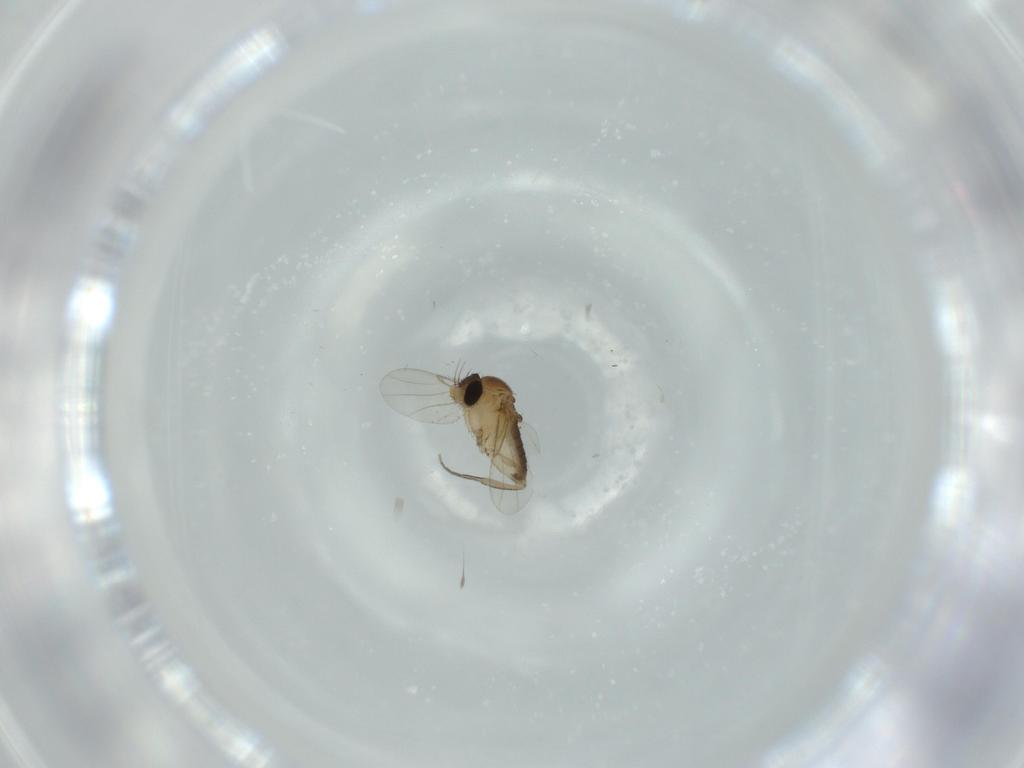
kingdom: Animalia
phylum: Arthropoda
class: Insecta
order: Diptera
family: Phoridae
